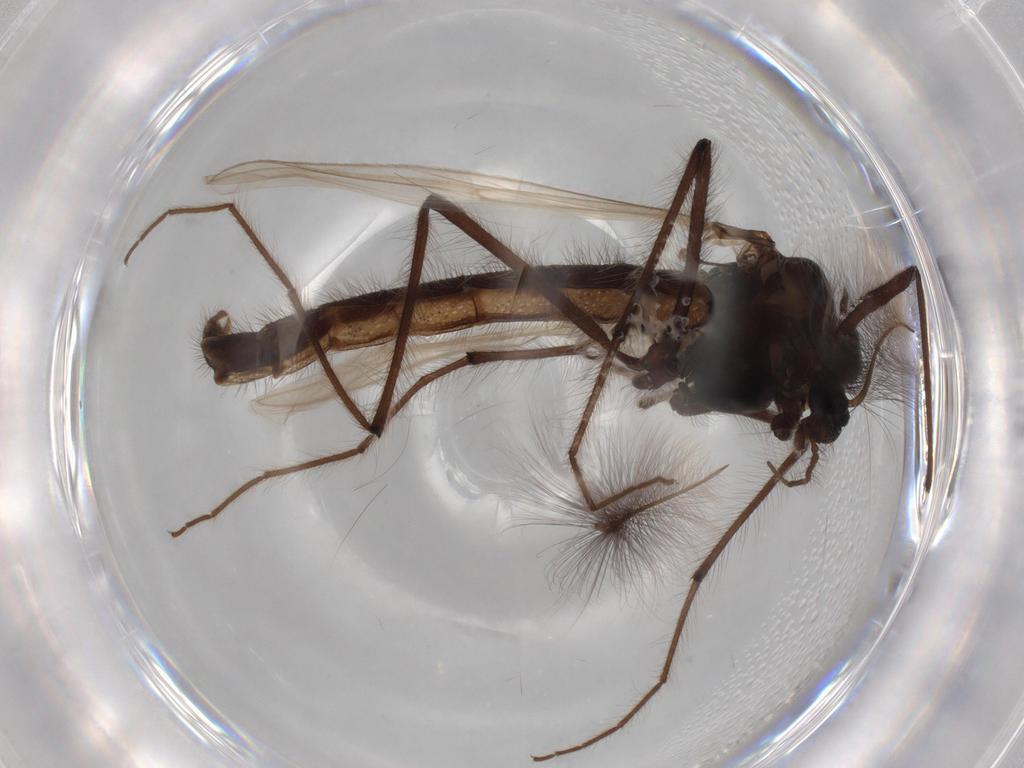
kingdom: Animalia
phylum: Arthropoda
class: Insecta
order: Diptera
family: Chironomidae
